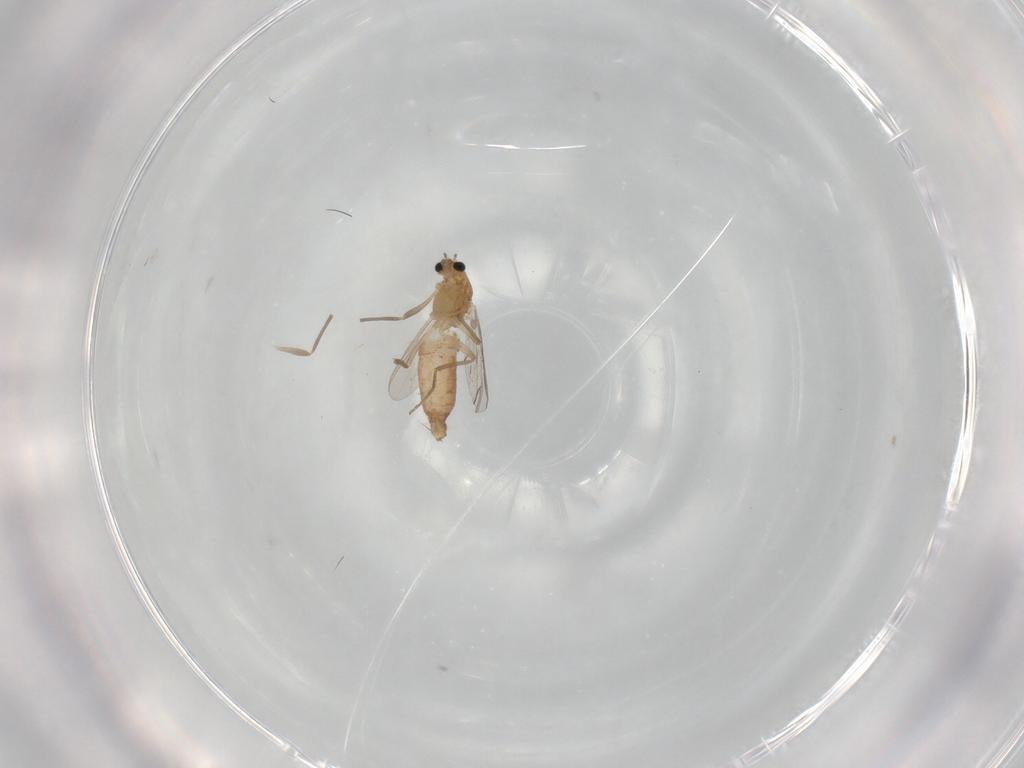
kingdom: Animalia
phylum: Arthropoda
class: Insecta
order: Diptera
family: Chironomidae
